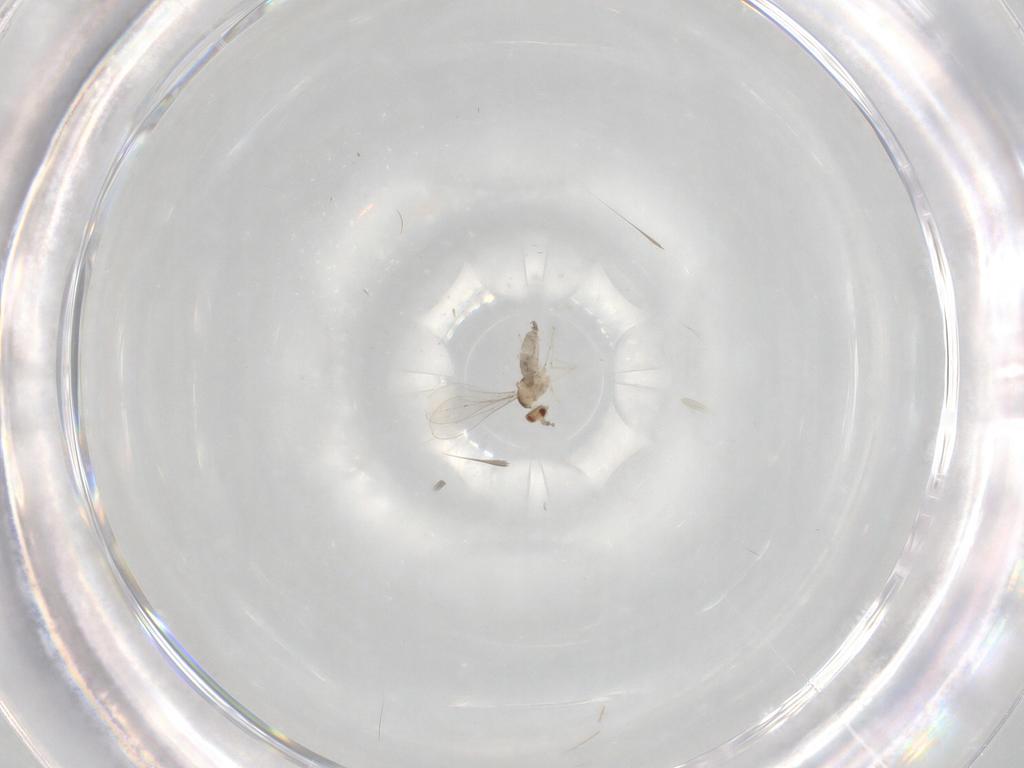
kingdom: Animalia
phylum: Arthropoda
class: Insecta
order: Diptera
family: Cecidomyiidae
